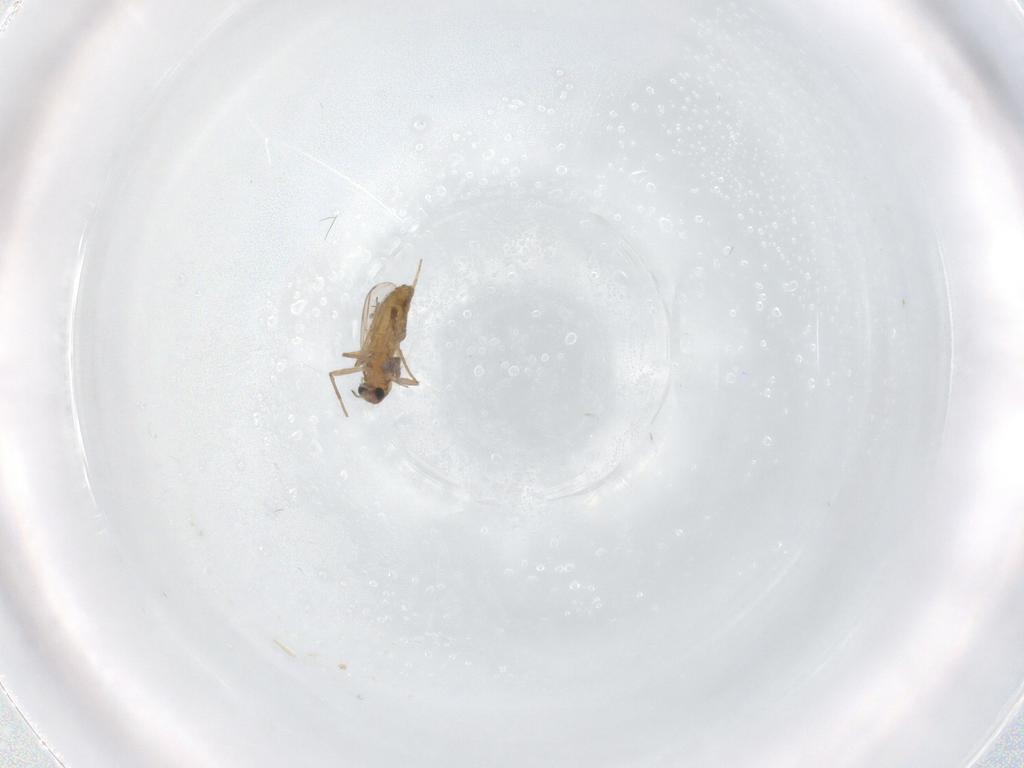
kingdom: Animalia
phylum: Arthropoda
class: Insecta
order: Diptera
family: Chironomidae
